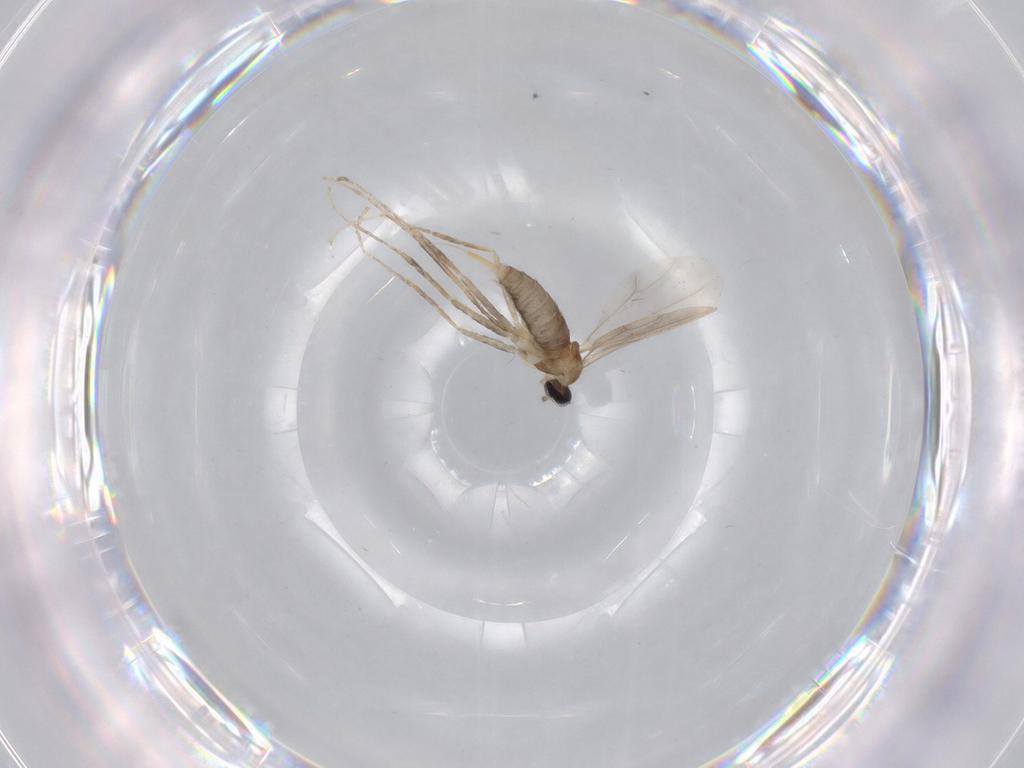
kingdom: Animalia
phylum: Arthropoda
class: Insecta
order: Diptera
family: Cecidomyiidae
